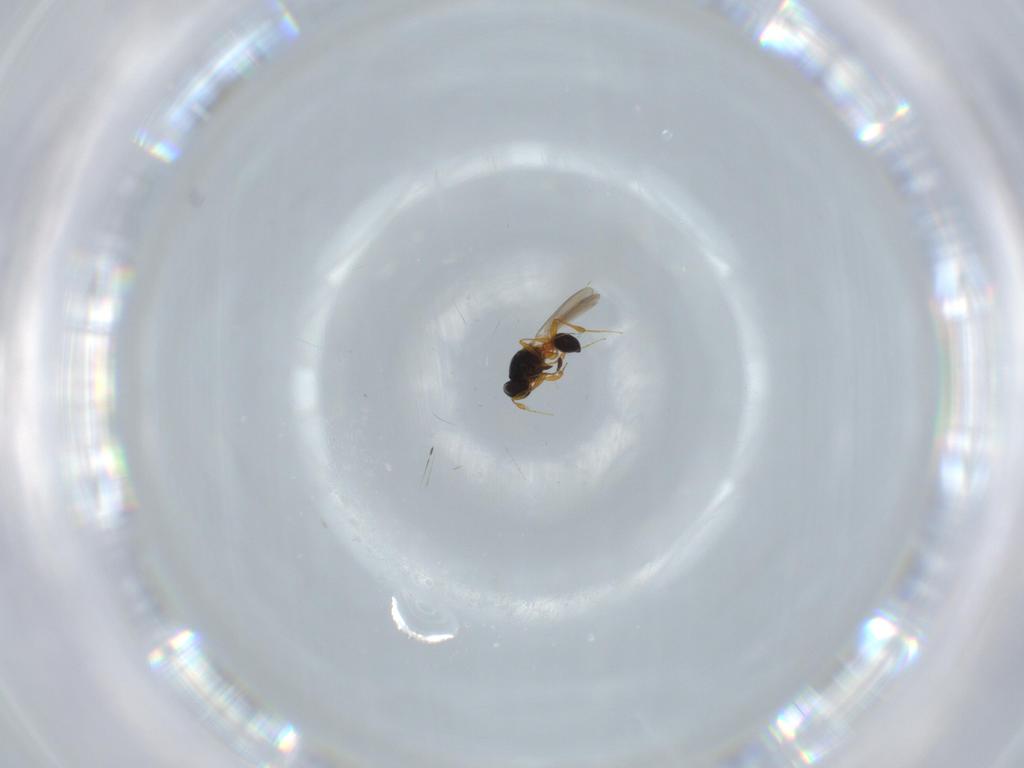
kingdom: Animalia
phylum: Arthropoda
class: Insecta
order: Hymenoptera
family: Platygastridae
